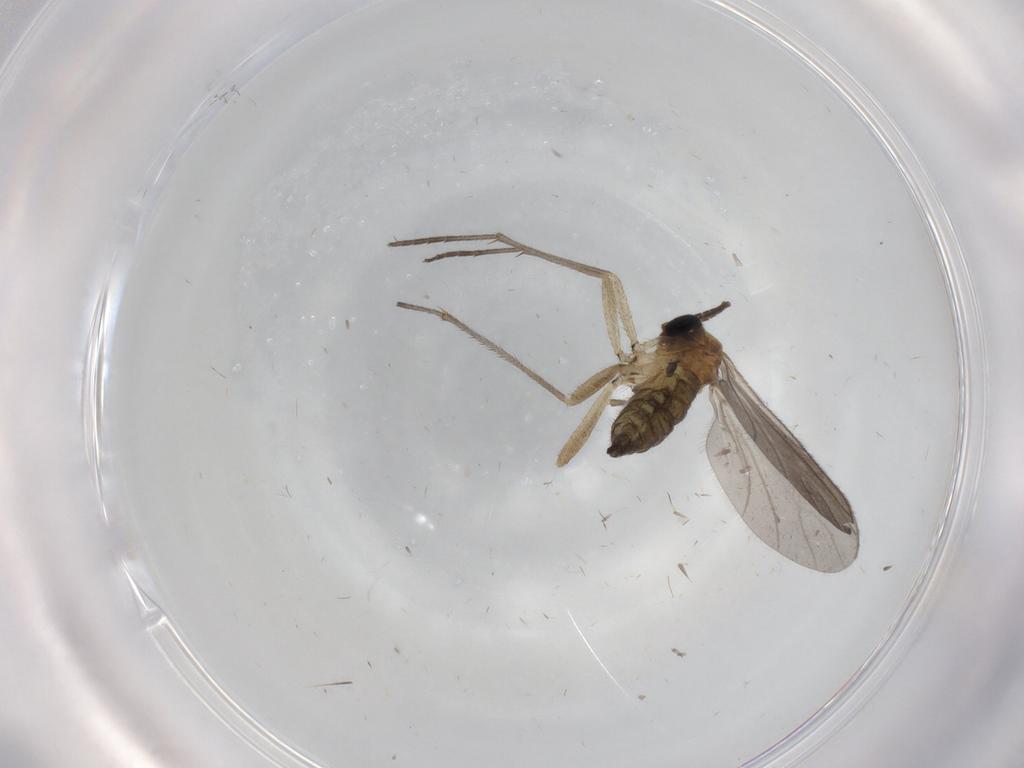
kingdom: Animalia
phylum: Arthropoda
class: Insecta
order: Diptera
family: Sciaridae
